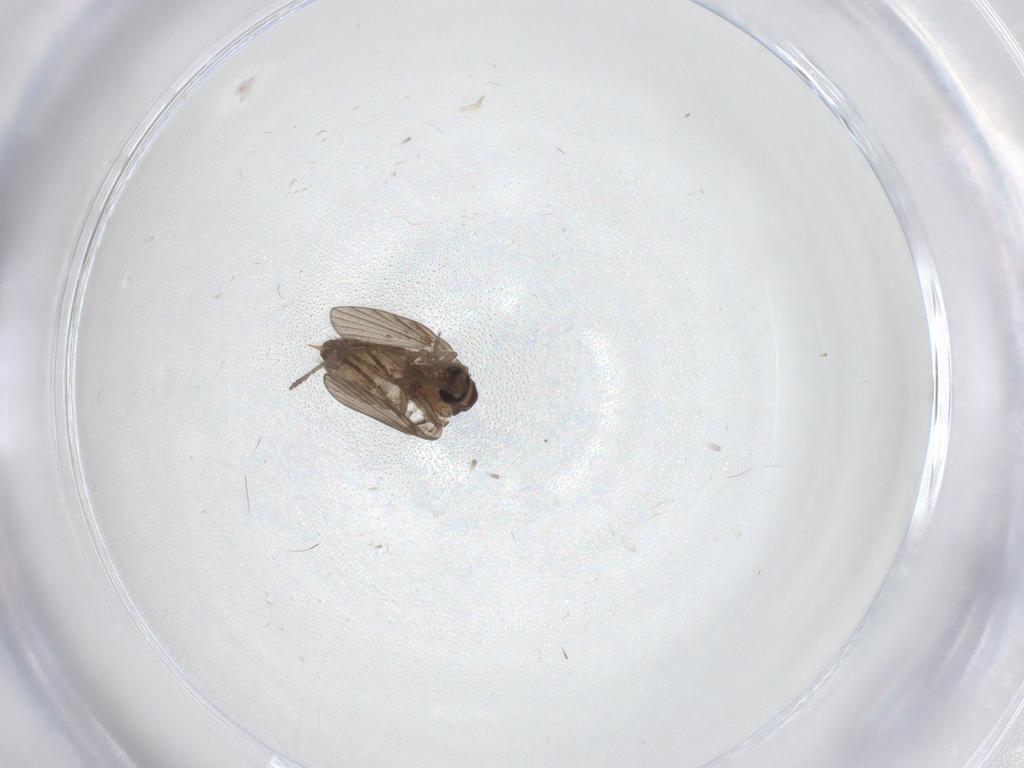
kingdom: Animalia
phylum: Arthropoda
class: Insecta
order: Diptera
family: Psychodidae
